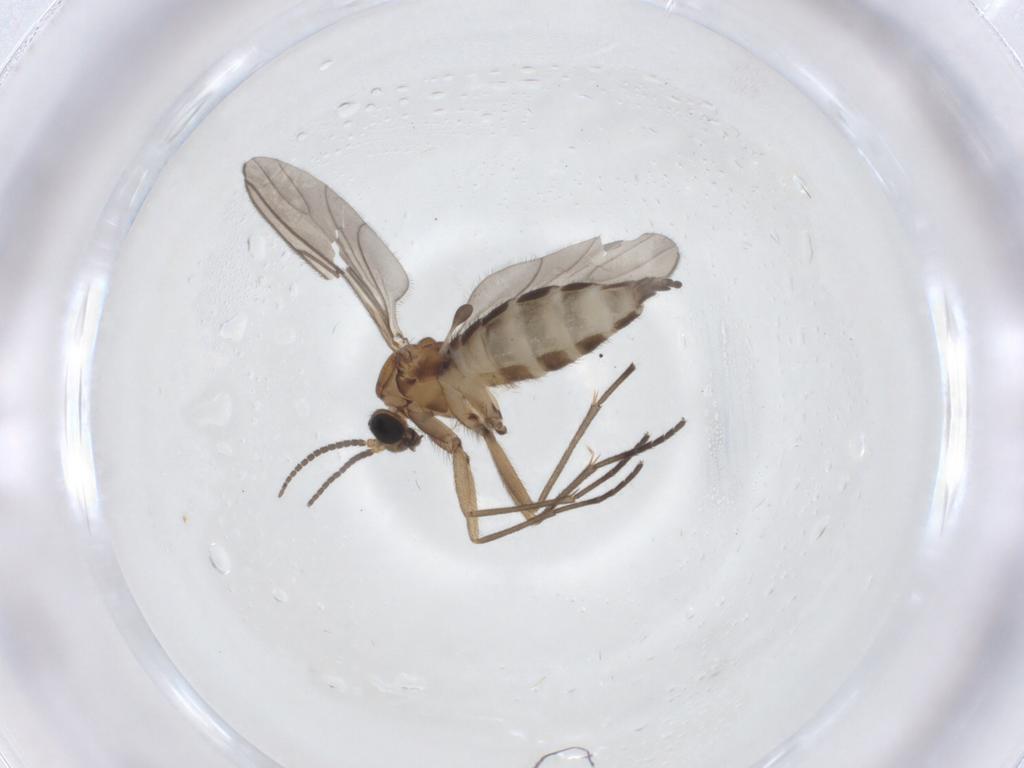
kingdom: Animalia
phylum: Arthropoda
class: Insecta
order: Diptera
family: Sciaridae
